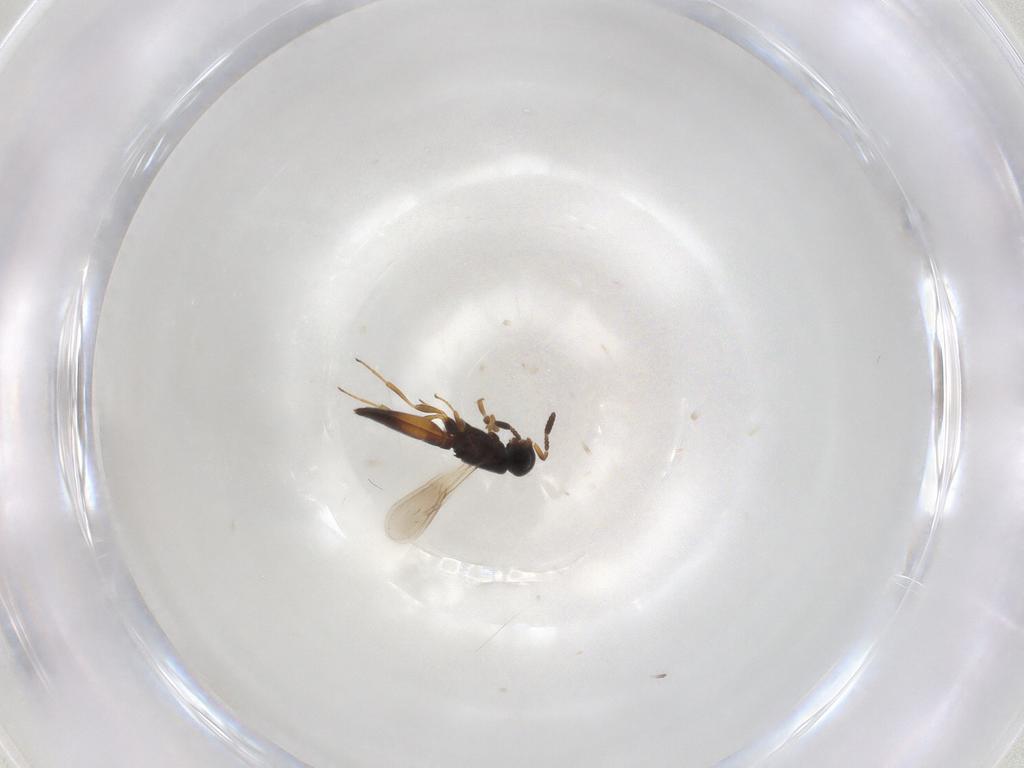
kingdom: Animalia
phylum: Arthropoda
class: Insecta
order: Hymenoptera
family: Scelionidae
